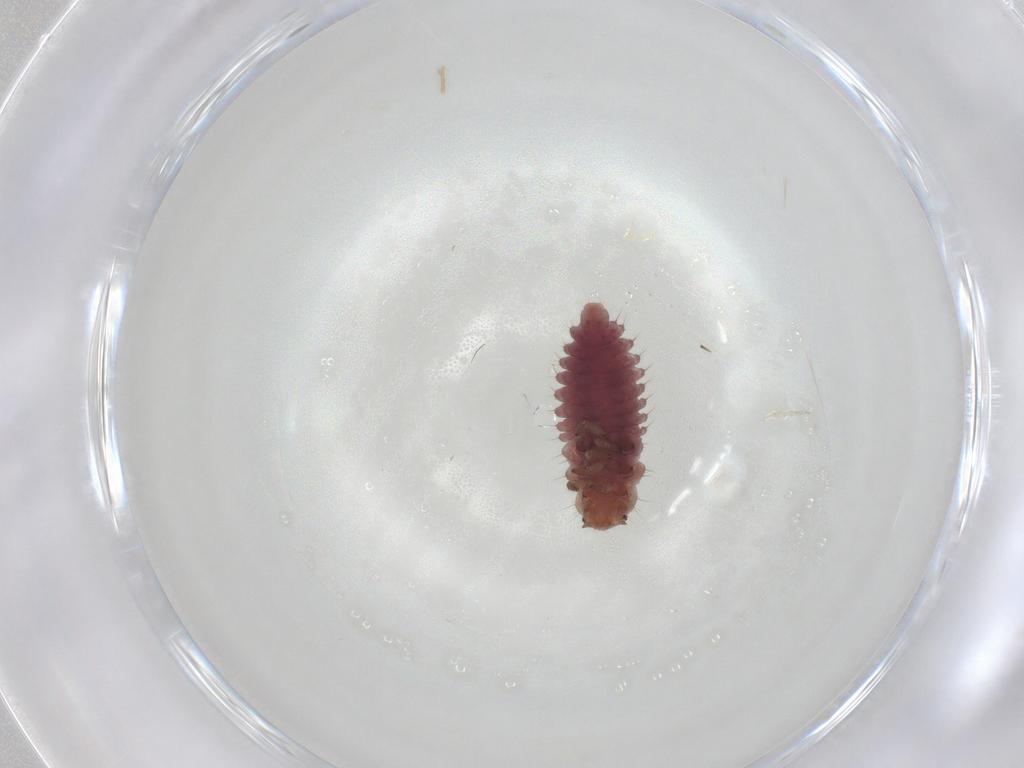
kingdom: Animalia
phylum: Arthropoda
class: Insecta
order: Coleoptera
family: Coccinellidae
